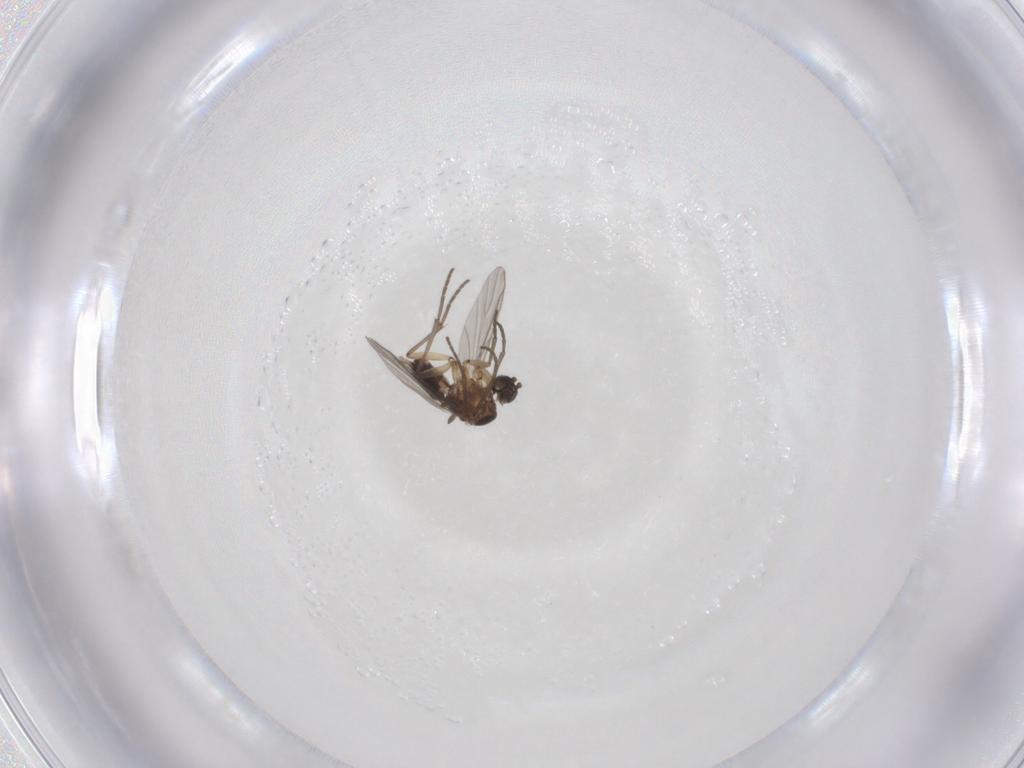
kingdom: Animalia
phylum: Arthropoda
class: Insecta
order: Diptera
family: Sciaridae
